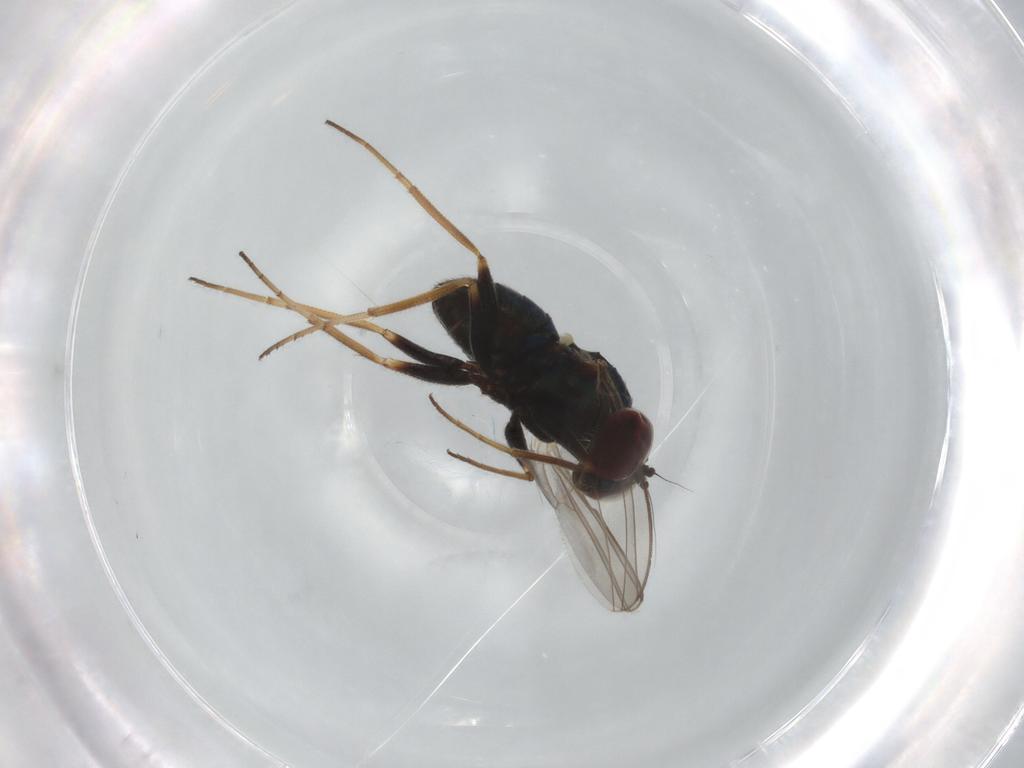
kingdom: Animalia
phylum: Arthropoda
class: Insecta
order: Diptera
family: Dolichopodidae
